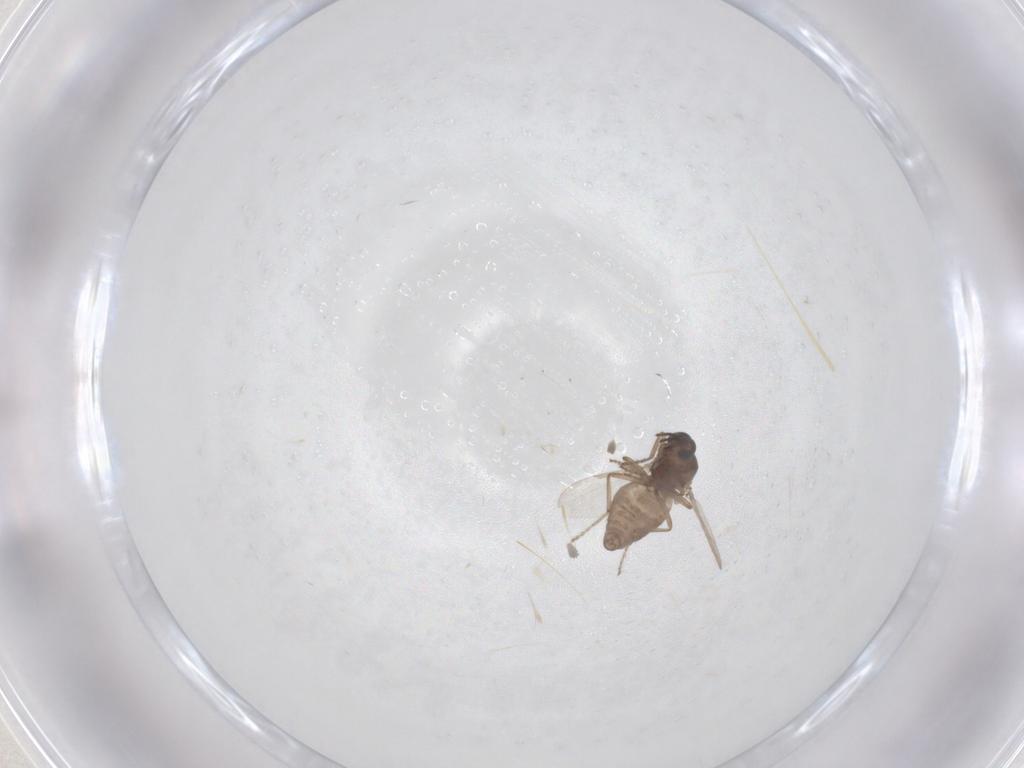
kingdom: Animalia
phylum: Arthropoda
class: Insecta
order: Diptera
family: Ceratopogonidae
